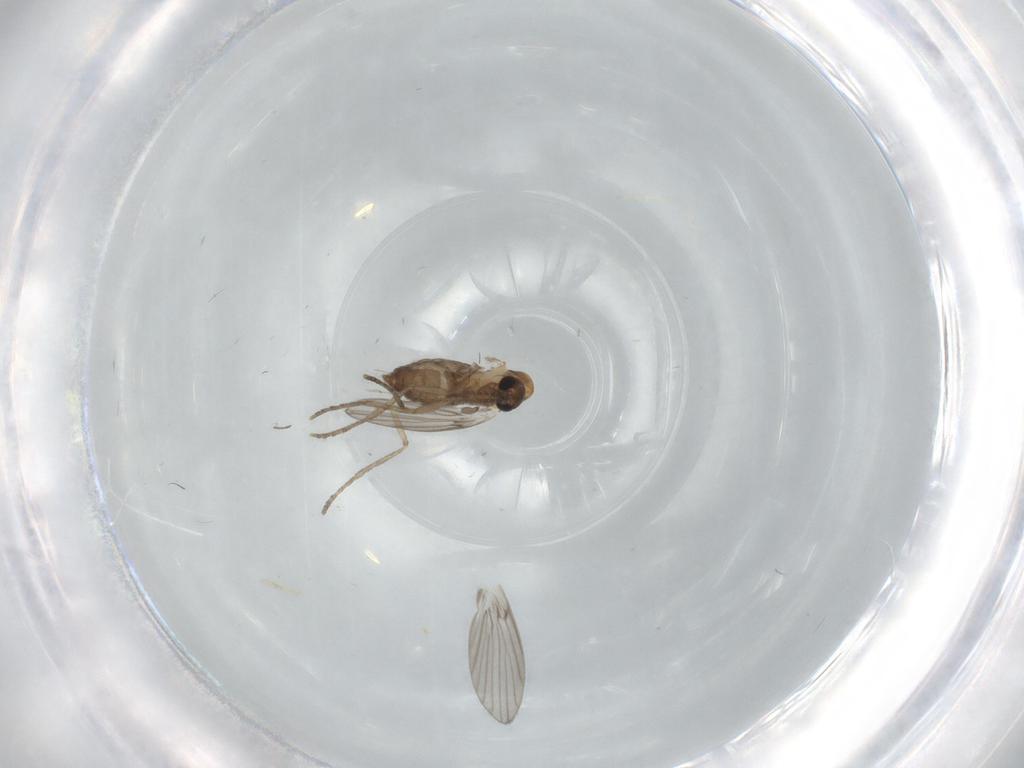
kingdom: Animalia
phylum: Arthropoda
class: Insecta
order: Diptera
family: Psychodidae
